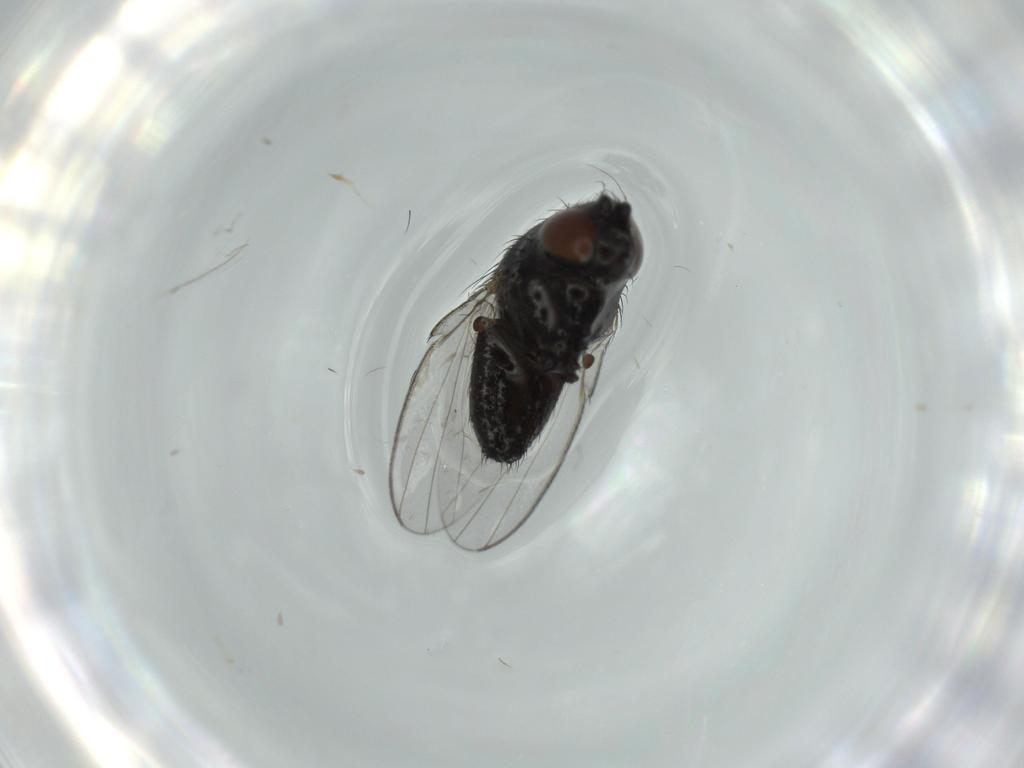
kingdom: Animalia
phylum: Arthropoda
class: Insecta
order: Diptera
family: Milichiidae
